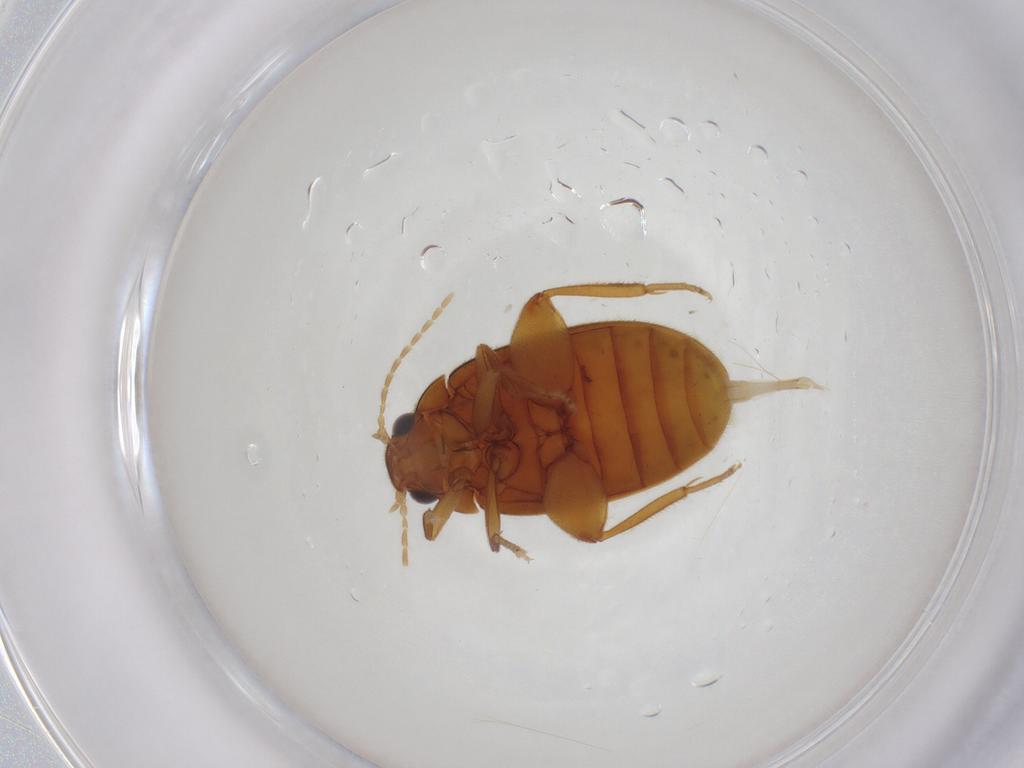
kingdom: Animalia
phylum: Arthropoda
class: Insecta
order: Coleoptera
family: Scirtidae
